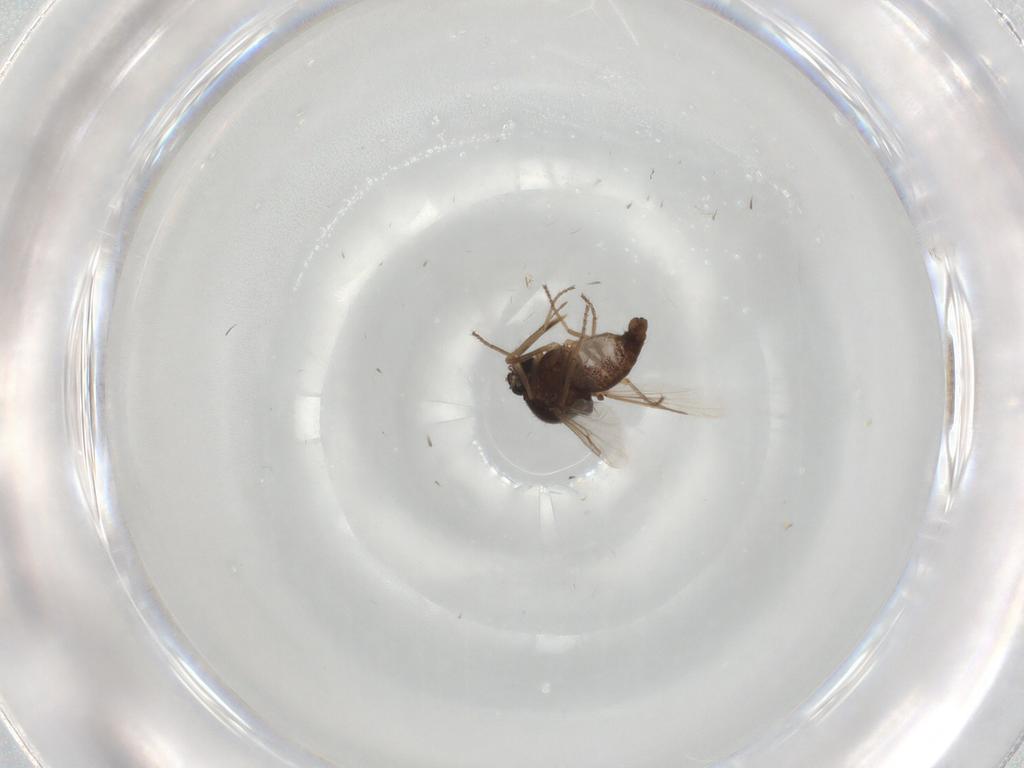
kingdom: Animalia
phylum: Arthropoda
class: Insecta
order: Diptera
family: Ceratopogonidae
